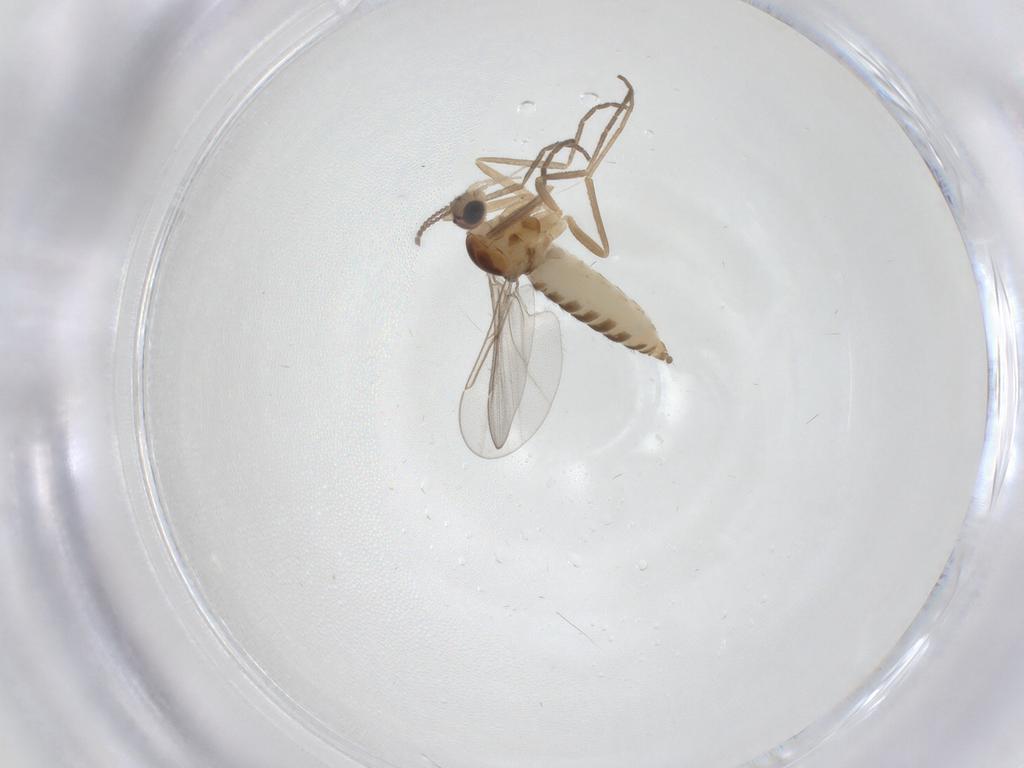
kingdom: Animalia
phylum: Arthropoda
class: Insecta
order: Diptera
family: Cecidomyiidae
